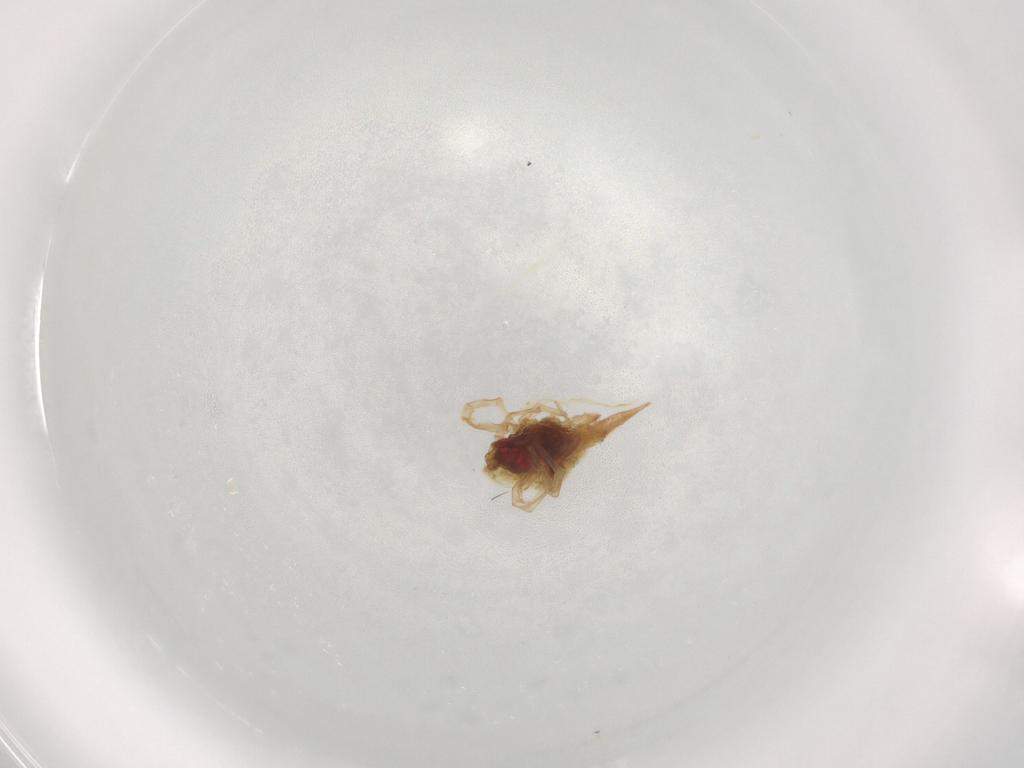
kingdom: Animalia
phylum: Arthropoda
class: Arachnida
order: Trombidiformes
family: Bdellidae
